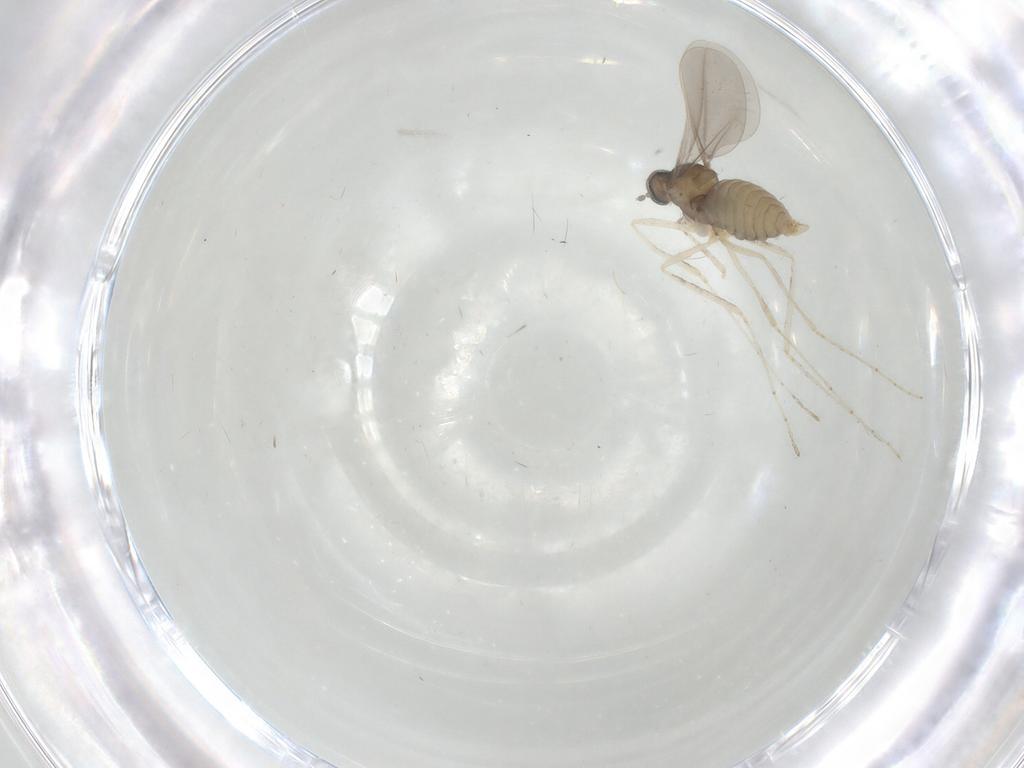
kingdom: Animalia
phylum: Arthropoda
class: Insecta
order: Diptera
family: Cecidomyiidae
